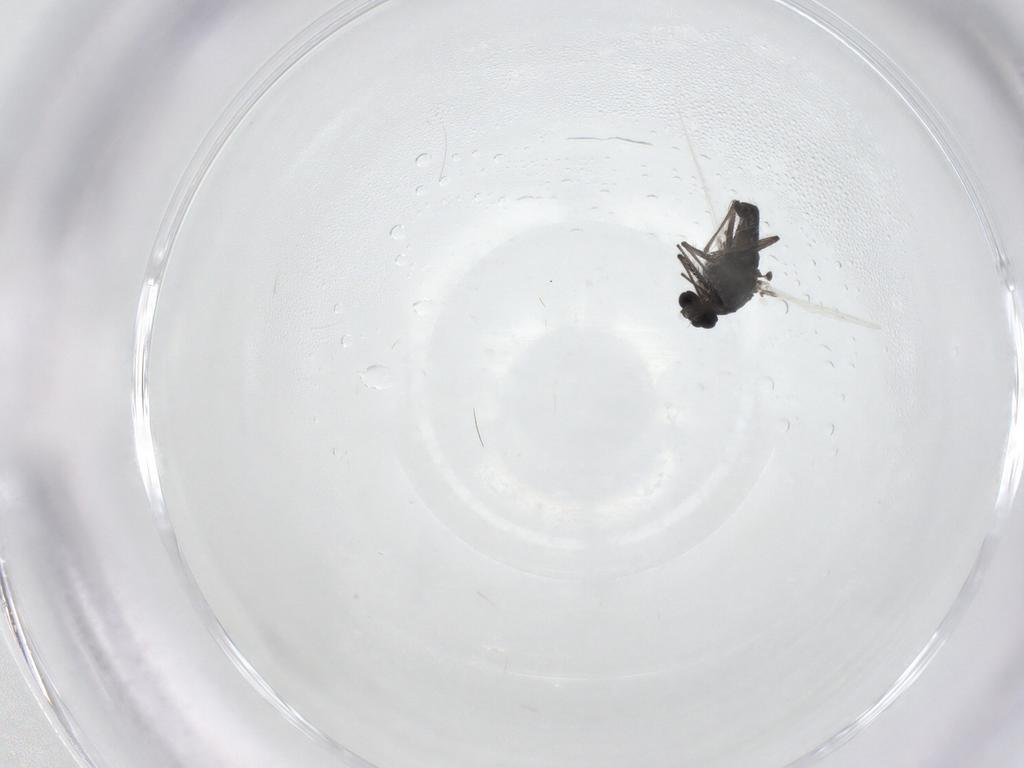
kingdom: Animalia
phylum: Arthropoda
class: Insecta
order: Diptera
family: Chironomidae
